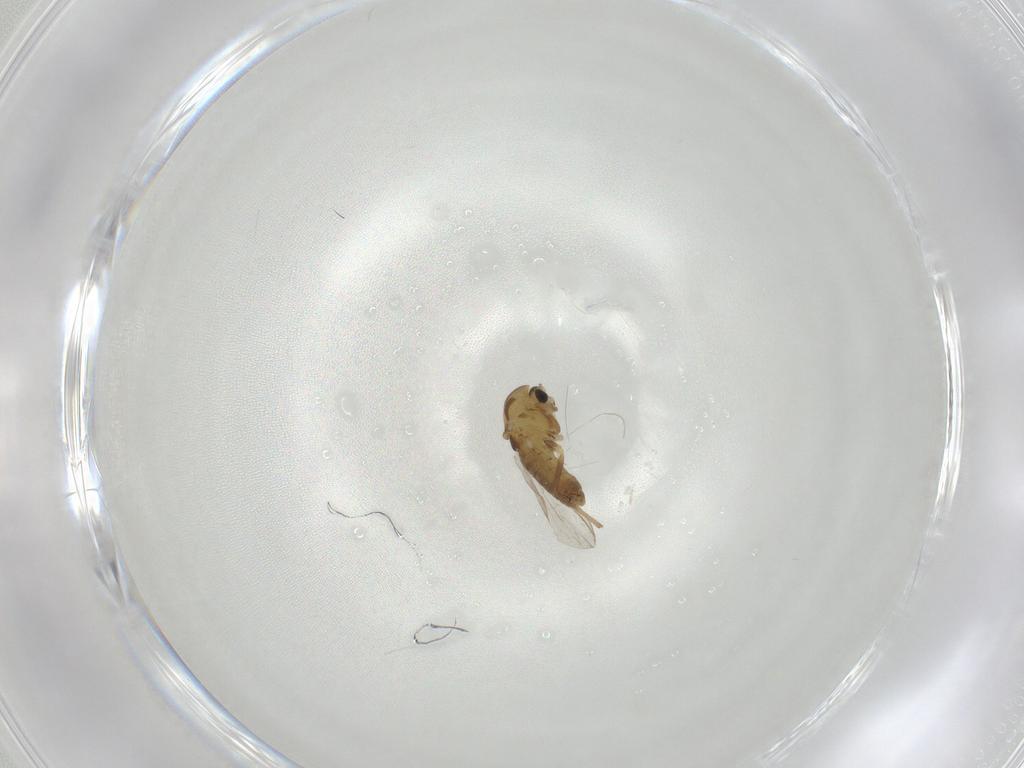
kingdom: Animalia
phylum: Arthropoda
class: Insecta
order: Diptera
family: Chironomidae
